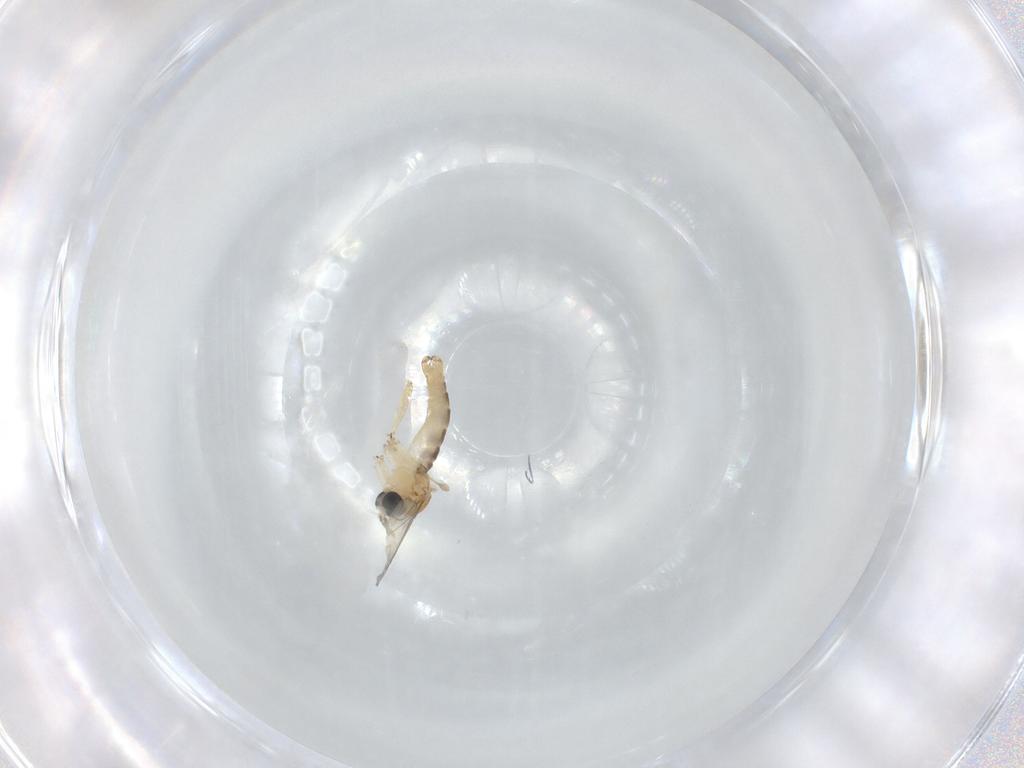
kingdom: Animalia
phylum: Arthropoda
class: Insecta
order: Diptera
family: Sciaridae
